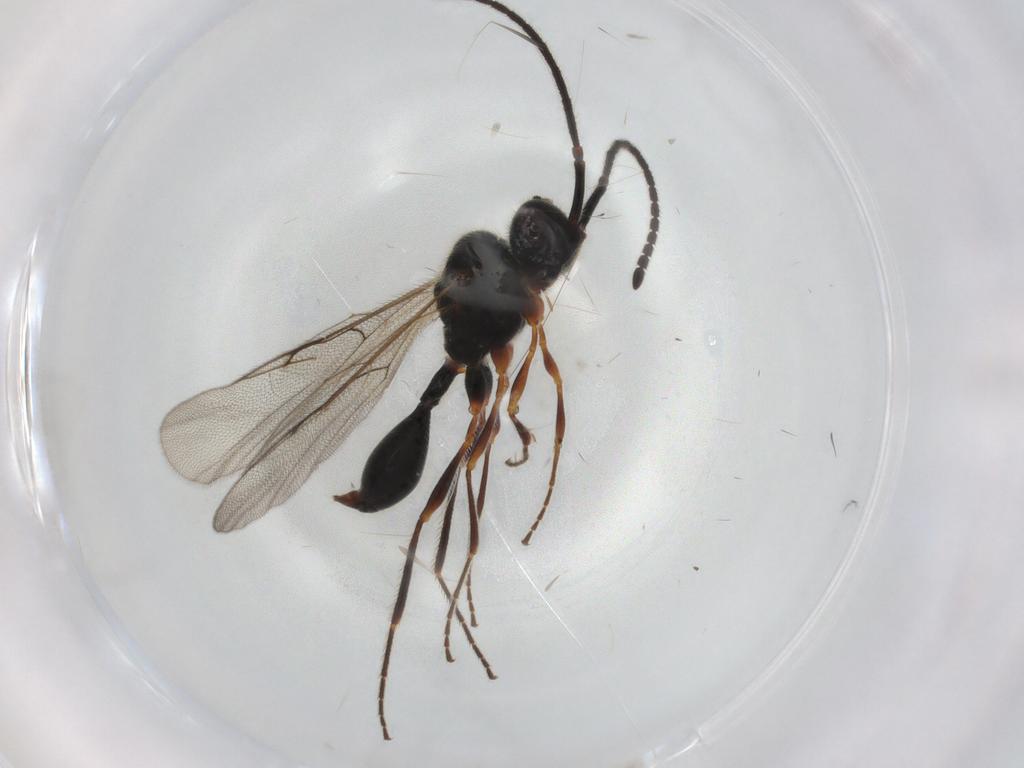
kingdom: Animalia
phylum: Arthropoda
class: Insecta
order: Hymenoptera
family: Diapriidae
